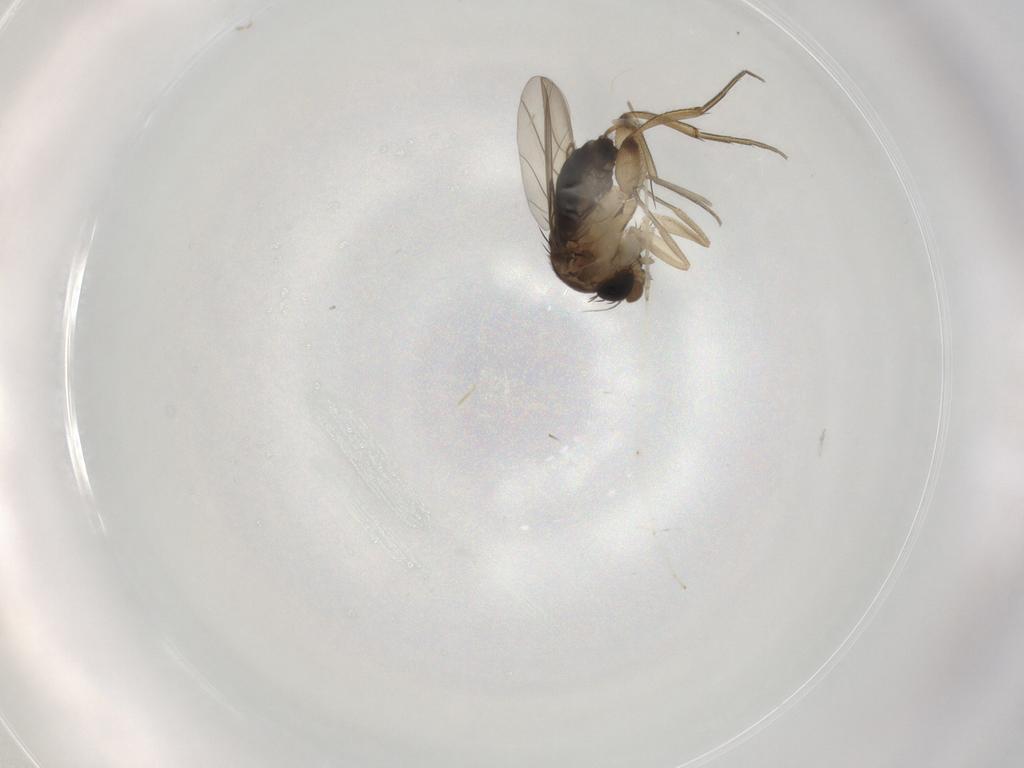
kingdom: Animalia
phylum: Arthropoda
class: Insecta
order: Diptera
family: Phoridae
